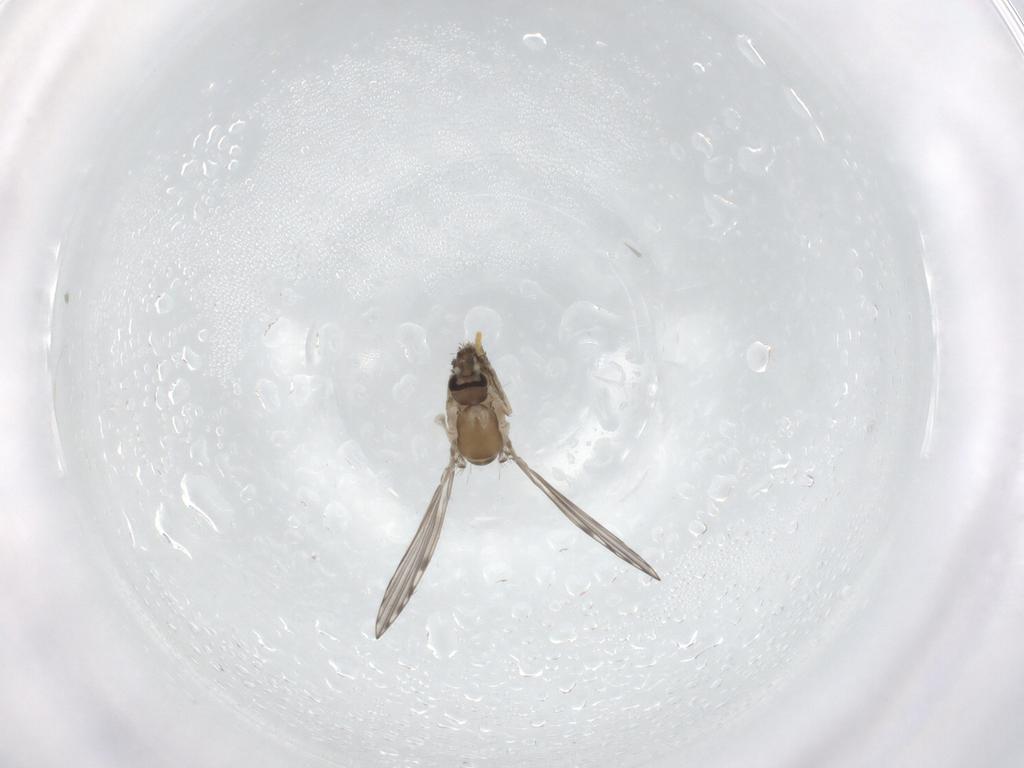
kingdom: Animalia
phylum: Arthropoda
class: Insecta
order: Diptera
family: Psychodidae
